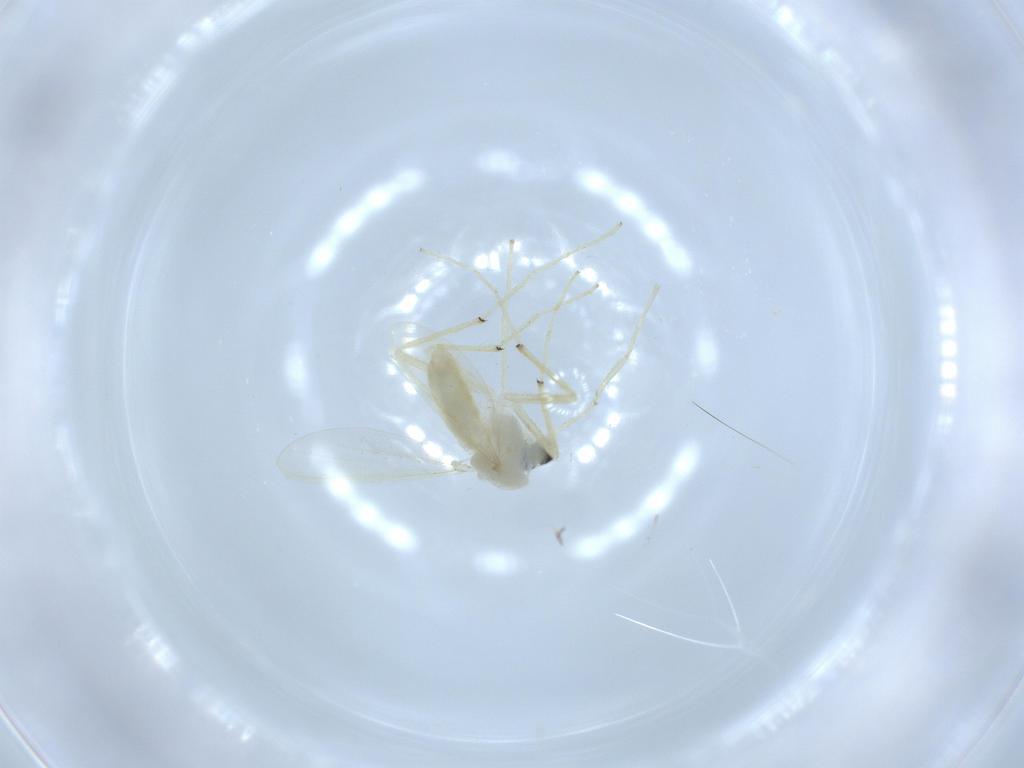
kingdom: Animalia
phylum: Arthropoda
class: Insecta
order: Diptera
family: Chironomidae
